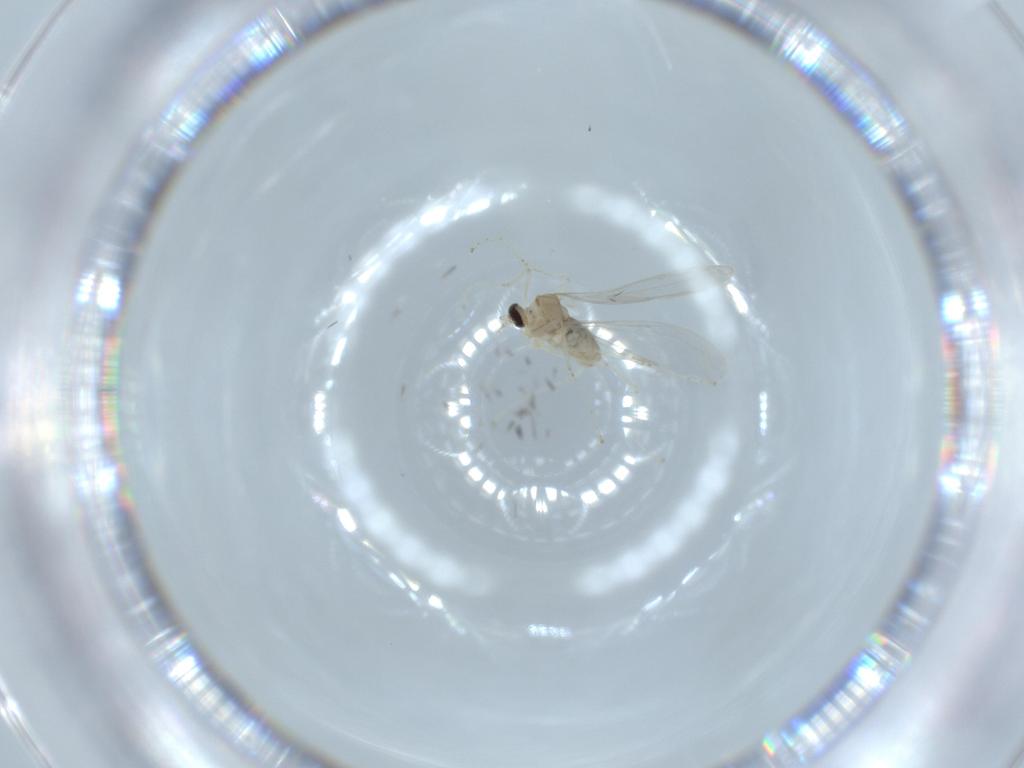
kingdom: Animalia
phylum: Arthropoda
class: Insecta
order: Diptera
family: Cecidomyiidae
